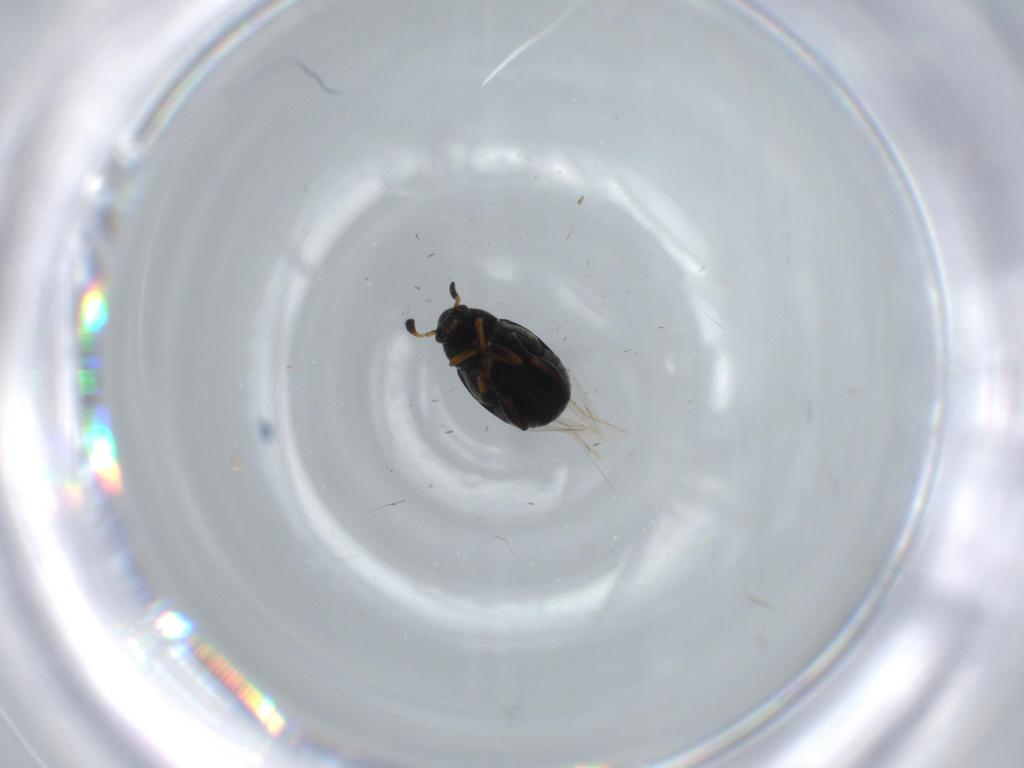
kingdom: Animalia
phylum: Arthropoda
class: Insecta
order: Coleoptera
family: Chrysomelidae
